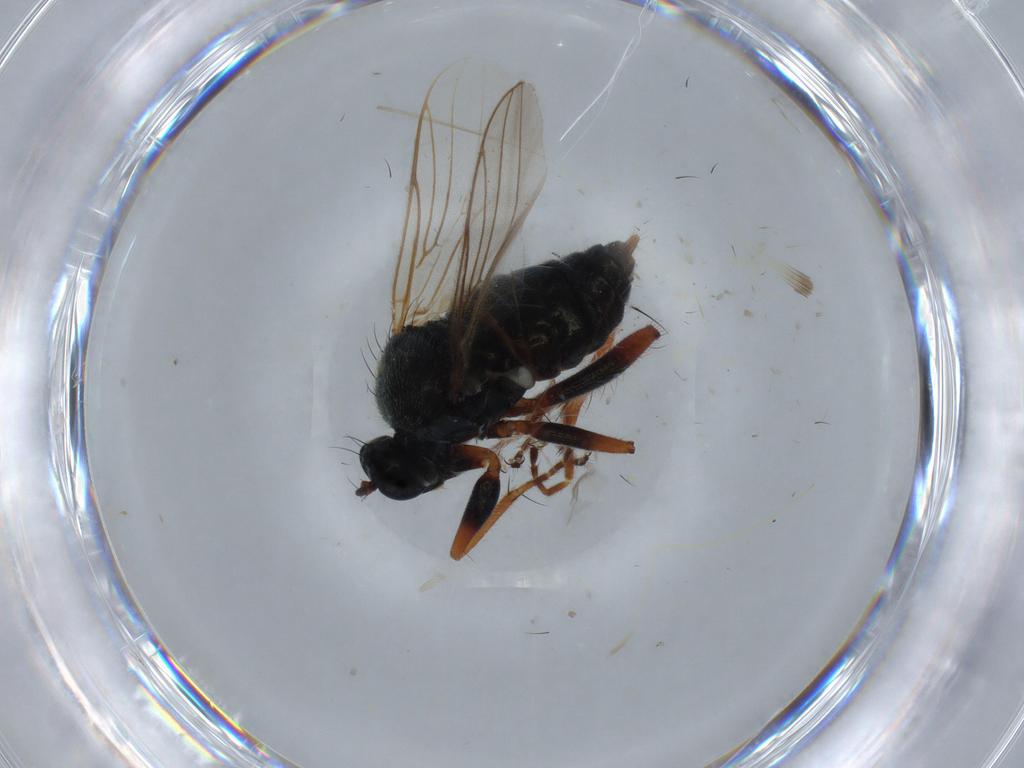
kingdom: Animalia
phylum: Arthropoda
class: Insecta
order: Diptera
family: Hybotidae
